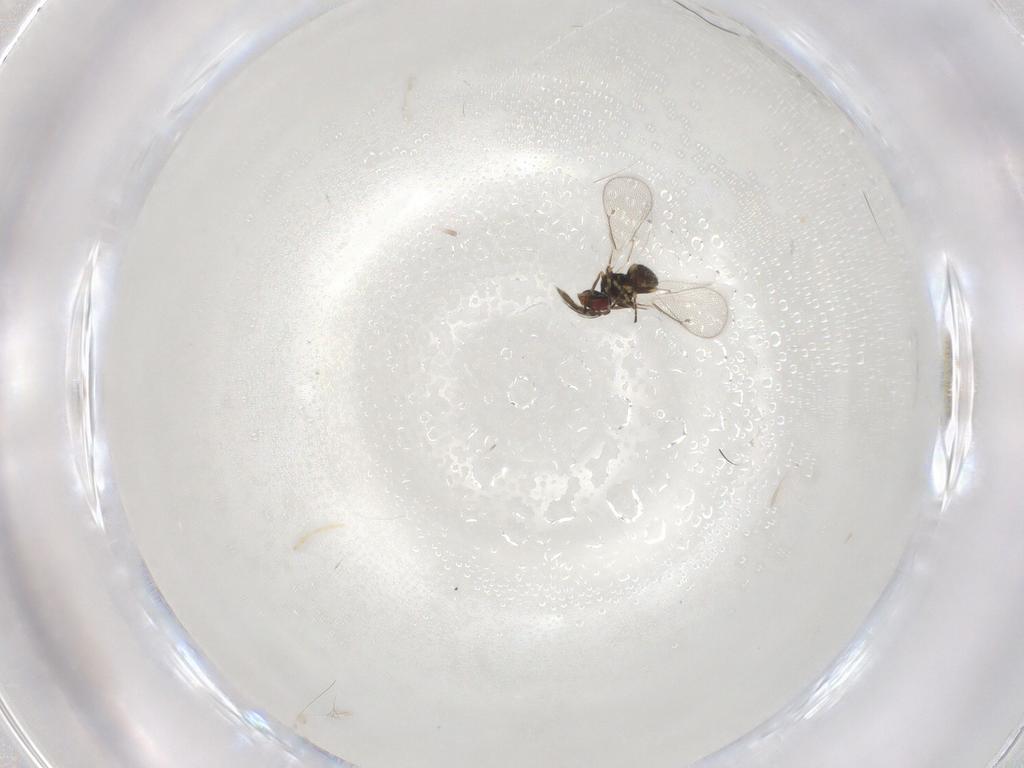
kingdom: Animalia
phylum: Arthropoda
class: Insecta
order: Hymenoptera
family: Eulophidae
